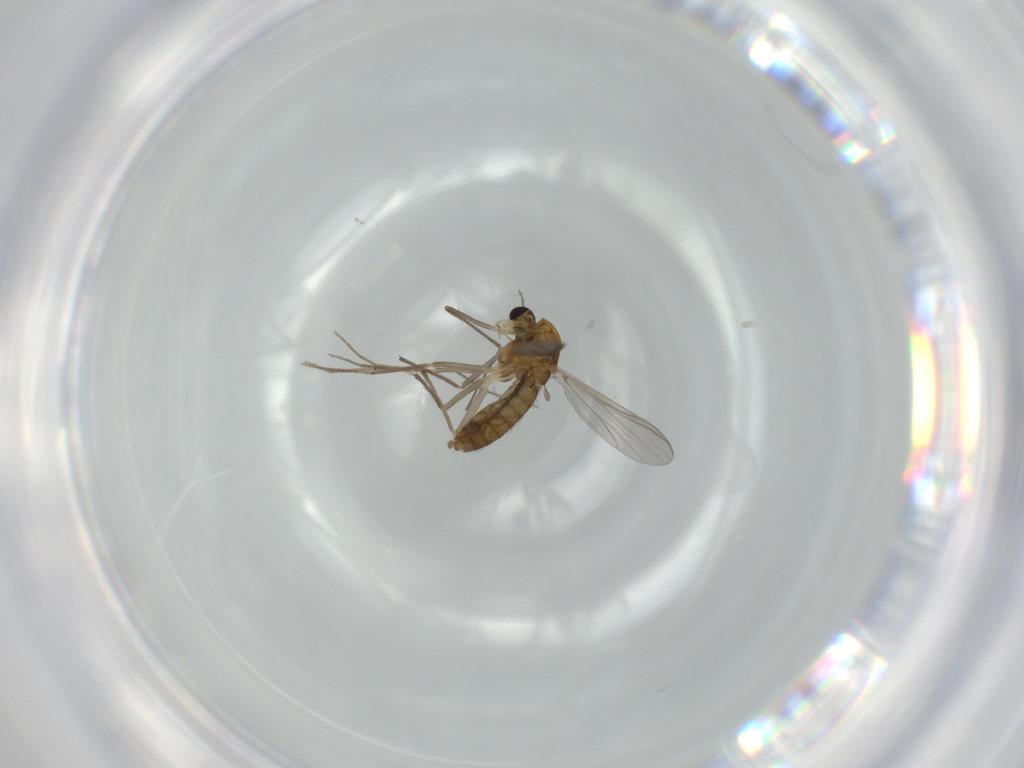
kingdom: Animalia
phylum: Arthropoda
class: Insecta
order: Diptera
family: Chironomidae
